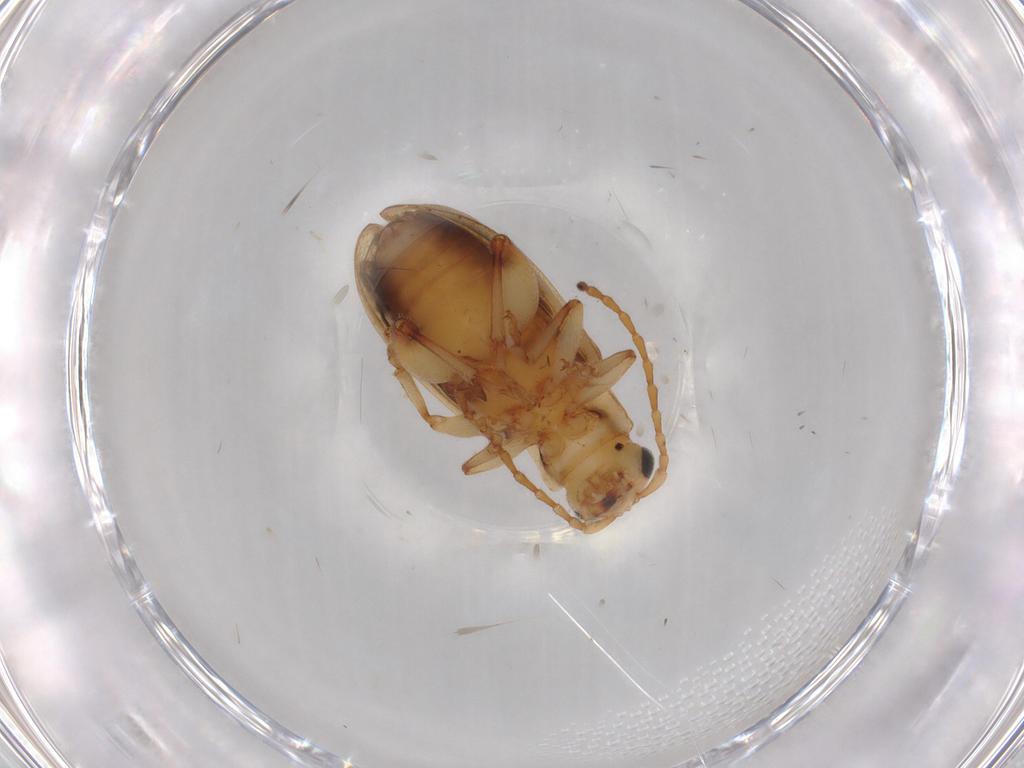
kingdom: Animalia
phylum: Arthropoda
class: Insecta
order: Coleoptera
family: Chrysomelidae
